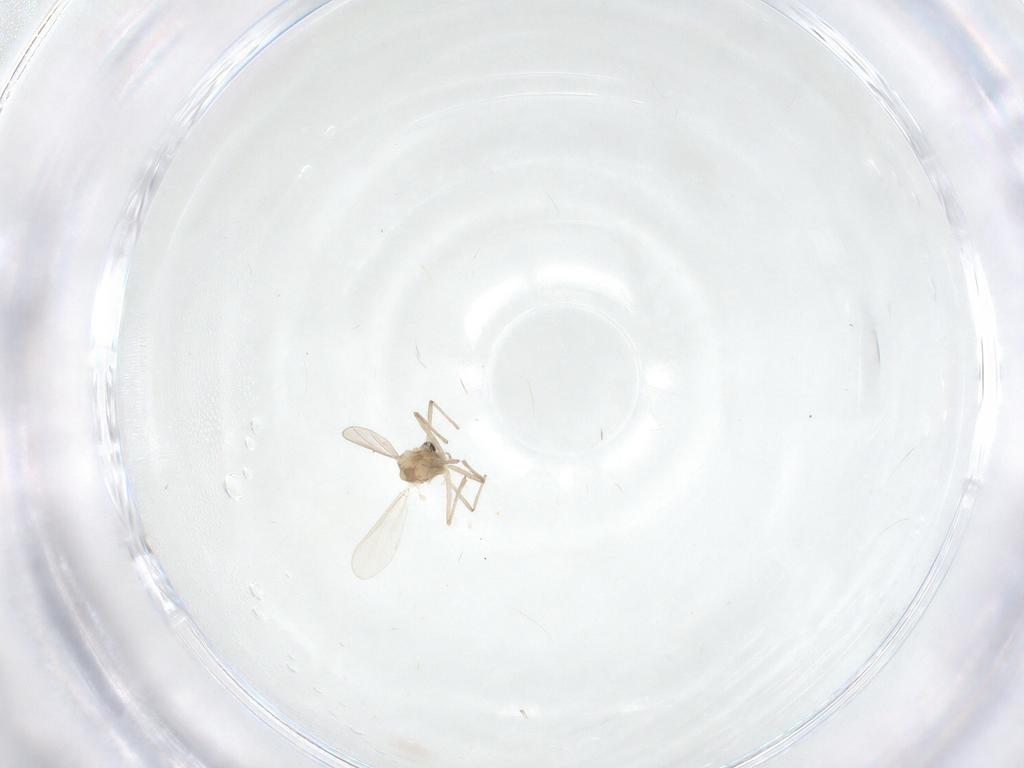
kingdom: Animalia
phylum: Arthropoda
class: Insecta
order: Diptera
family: Chironomidae
